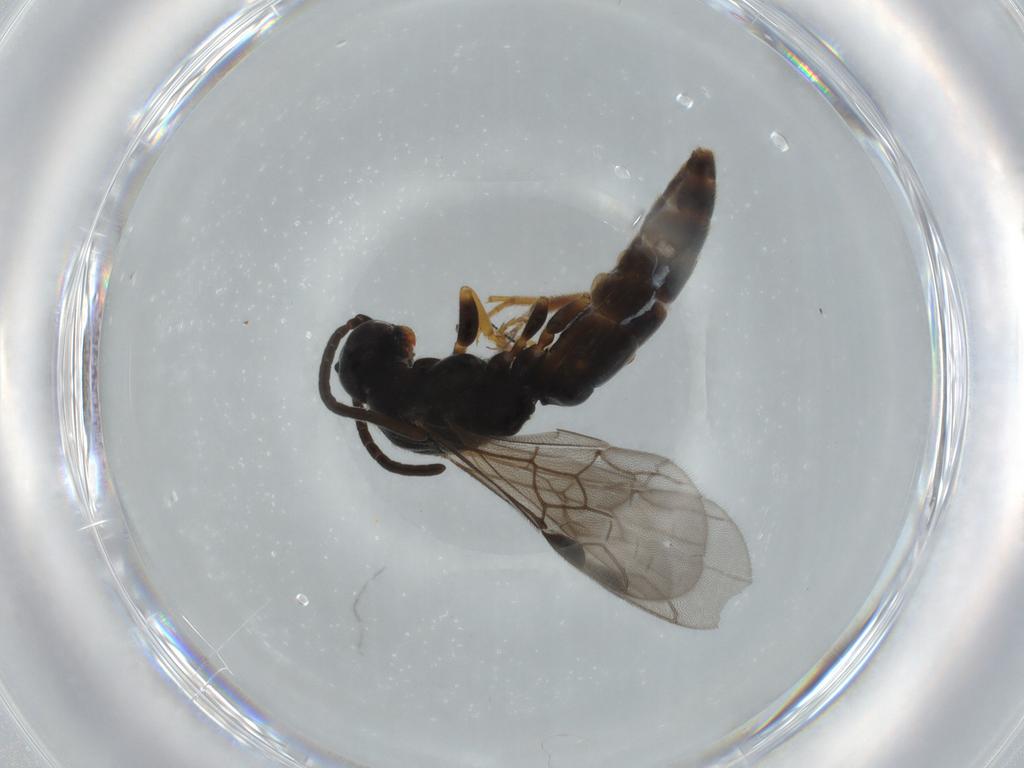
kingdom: Animalia
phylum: Arthropoda
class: Insecta
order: Hymenoptera
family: Sierolomorphidae
